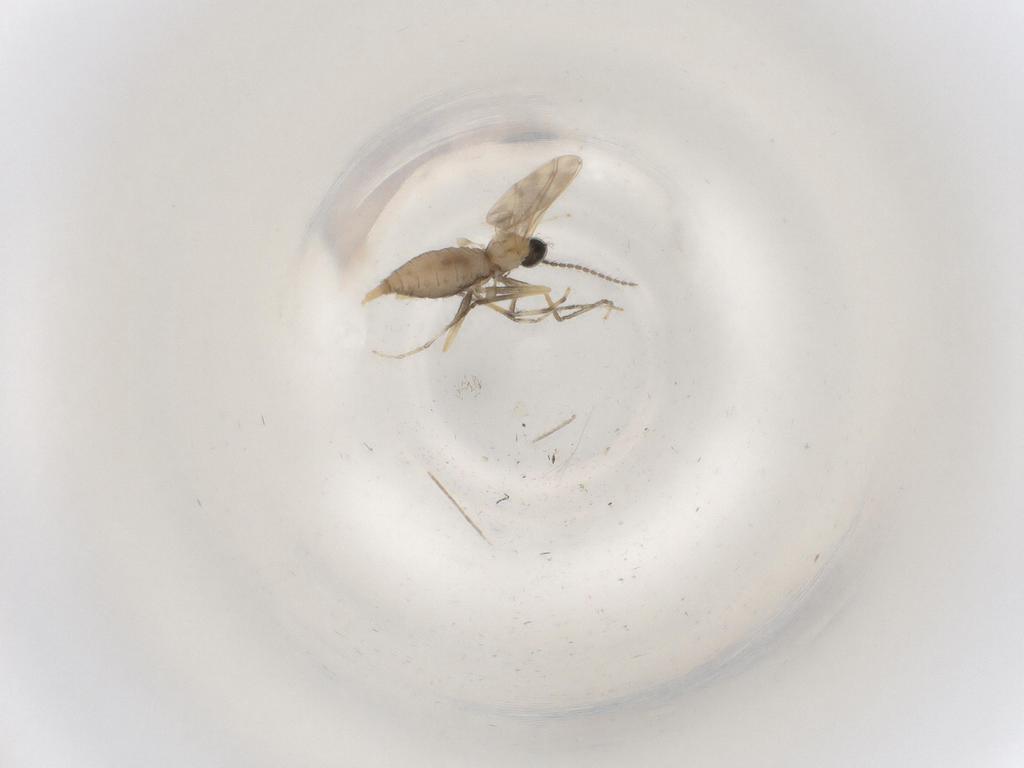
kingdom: Animalia
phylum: Arthropoda
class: Insecta
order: Diptera
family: Cecidomyiidae
